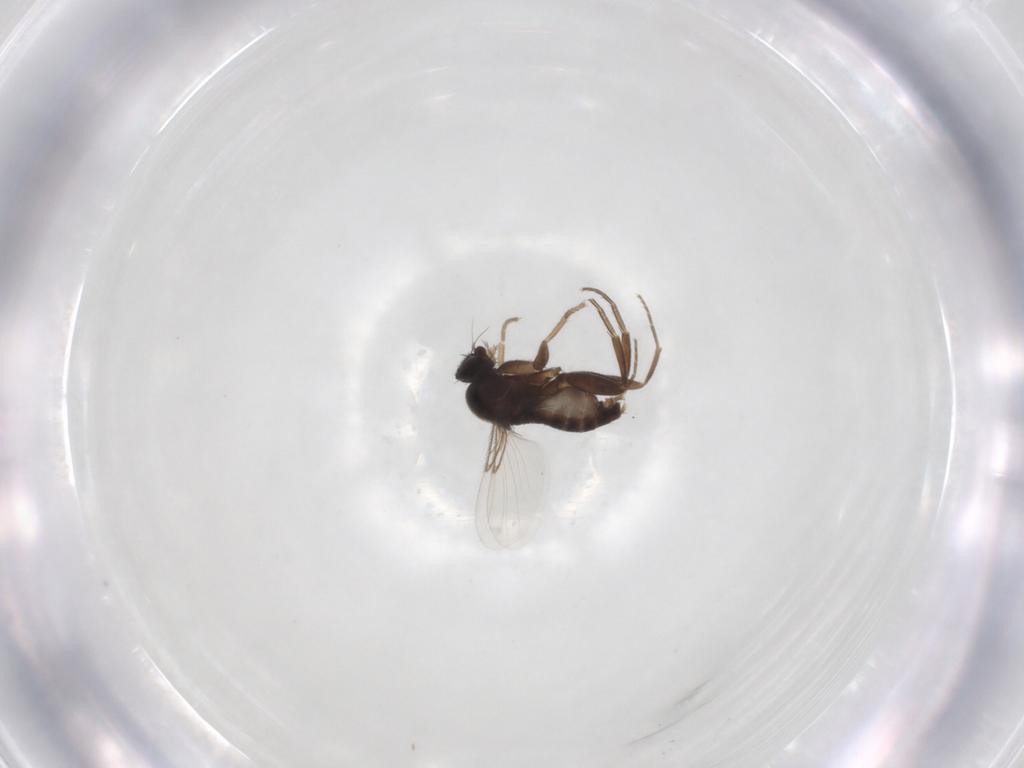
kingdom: Animalia
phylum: Arthropoda
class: Insecta
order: Diptera
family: Phoridae
